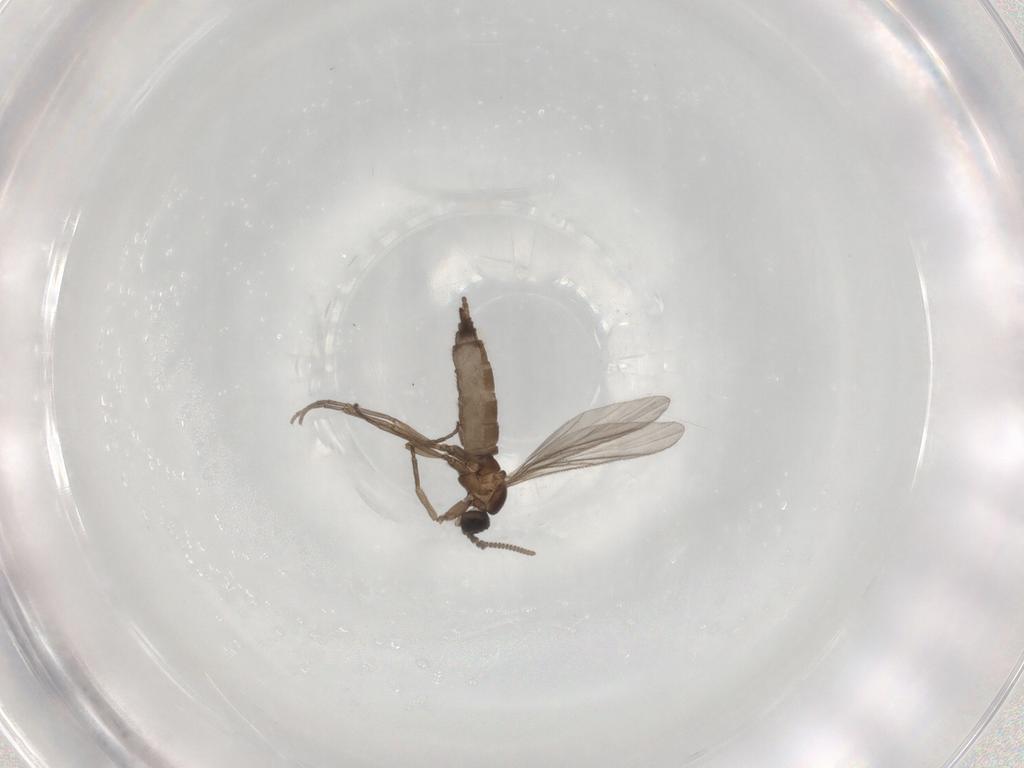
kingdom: Animalia
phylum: Arthropoda
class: Insecta
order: Diptera
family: Sciaridae
